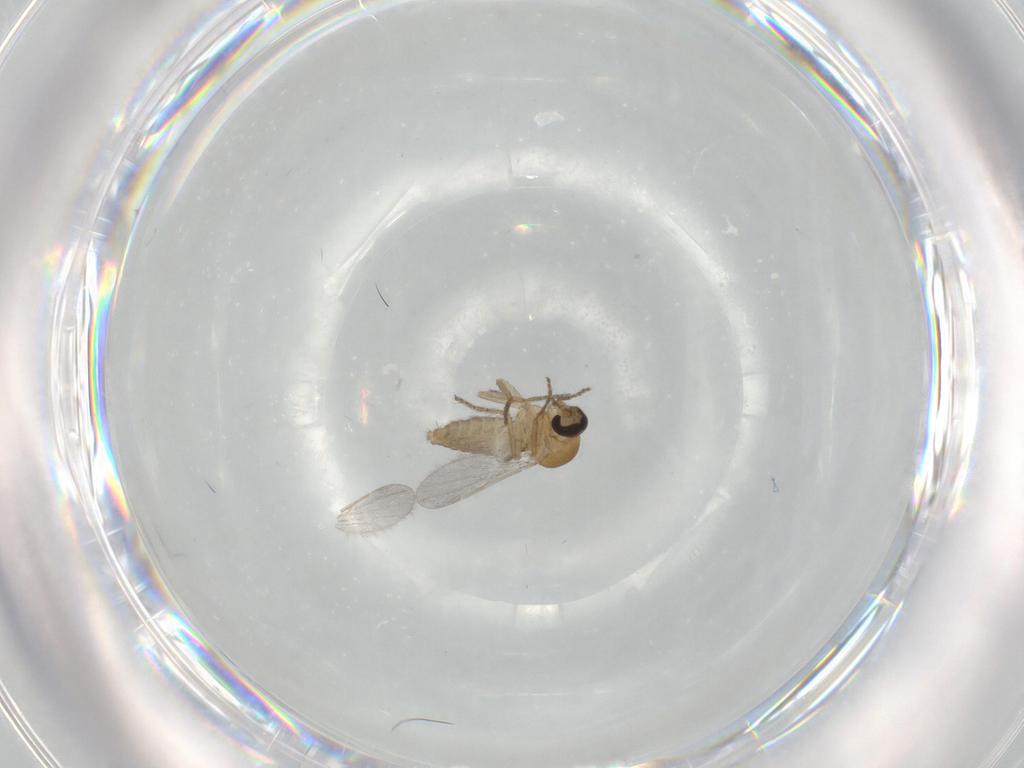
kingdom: Animalia
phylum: Arthropoda
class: Insecta
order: Diptera
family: Ceratopogonidae
